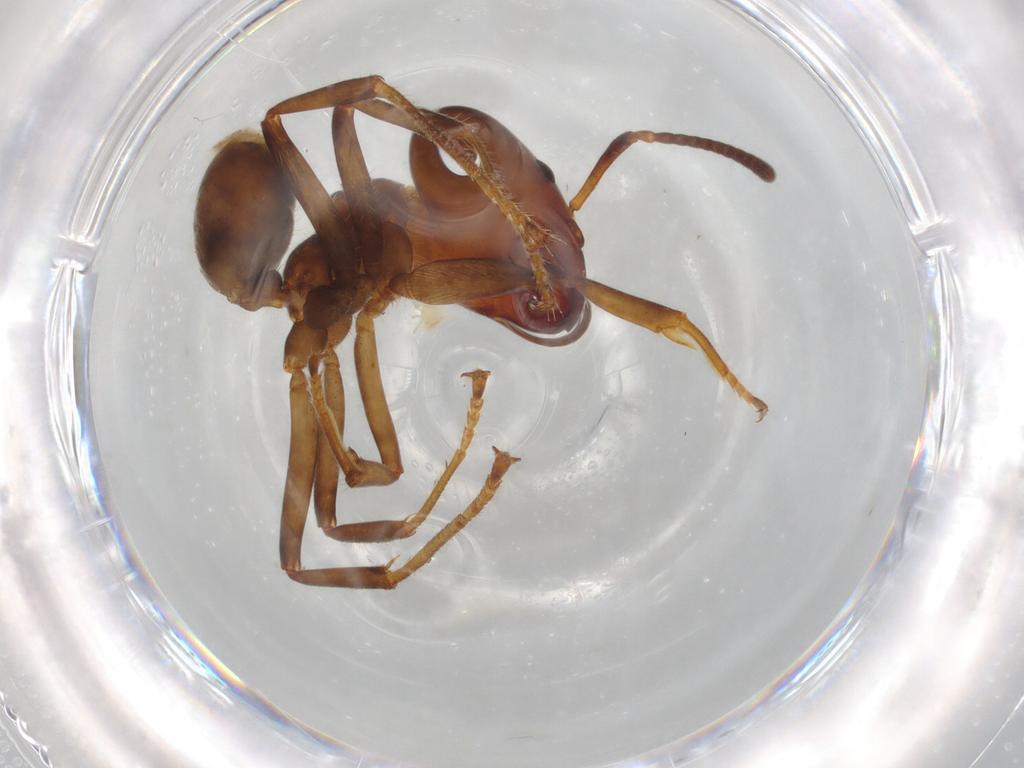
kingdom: Animalia
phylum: Arthropoda
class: Insecta
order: Hymenoptera
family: Formicidae
